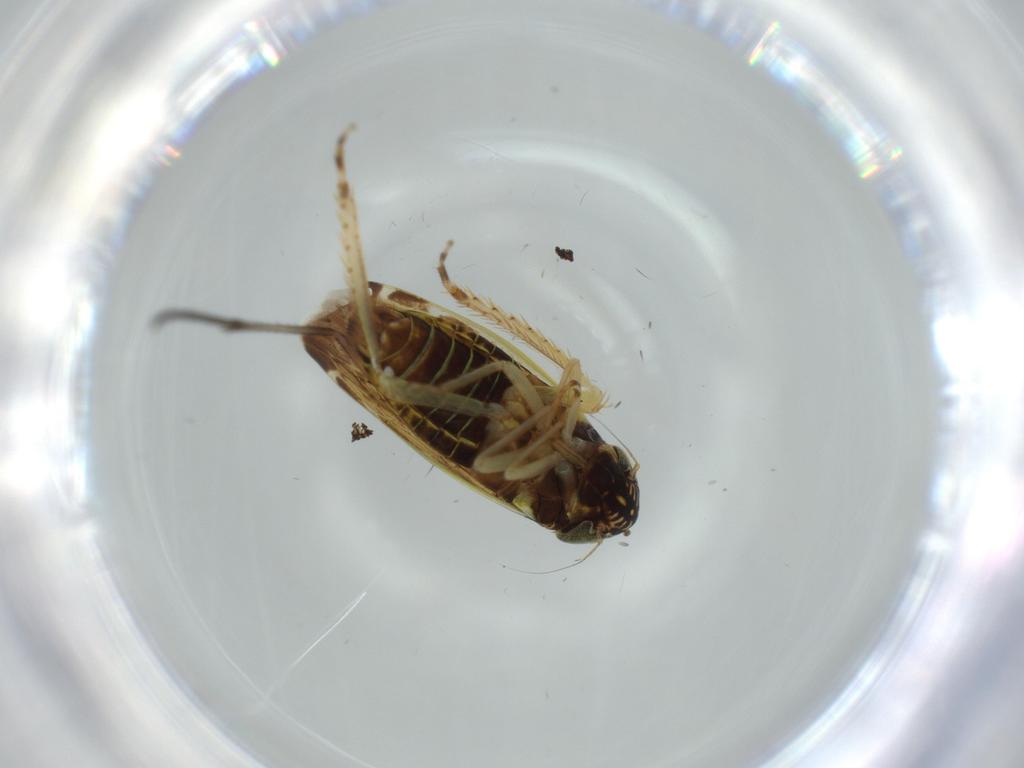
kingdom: Animalia
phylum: Arthropoda
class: Insecta
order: Hemiptera
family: Cicadellidae
